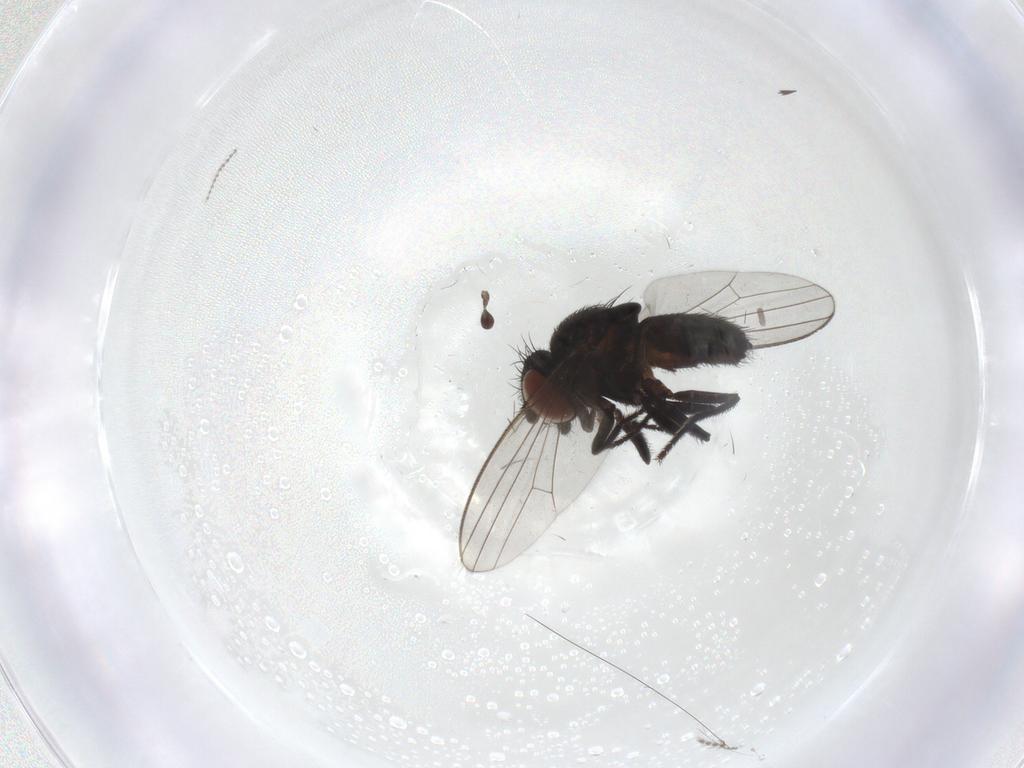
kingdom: Animalia
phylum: Arthropoda
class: Insecta
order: Diptera
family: Milichiidae
